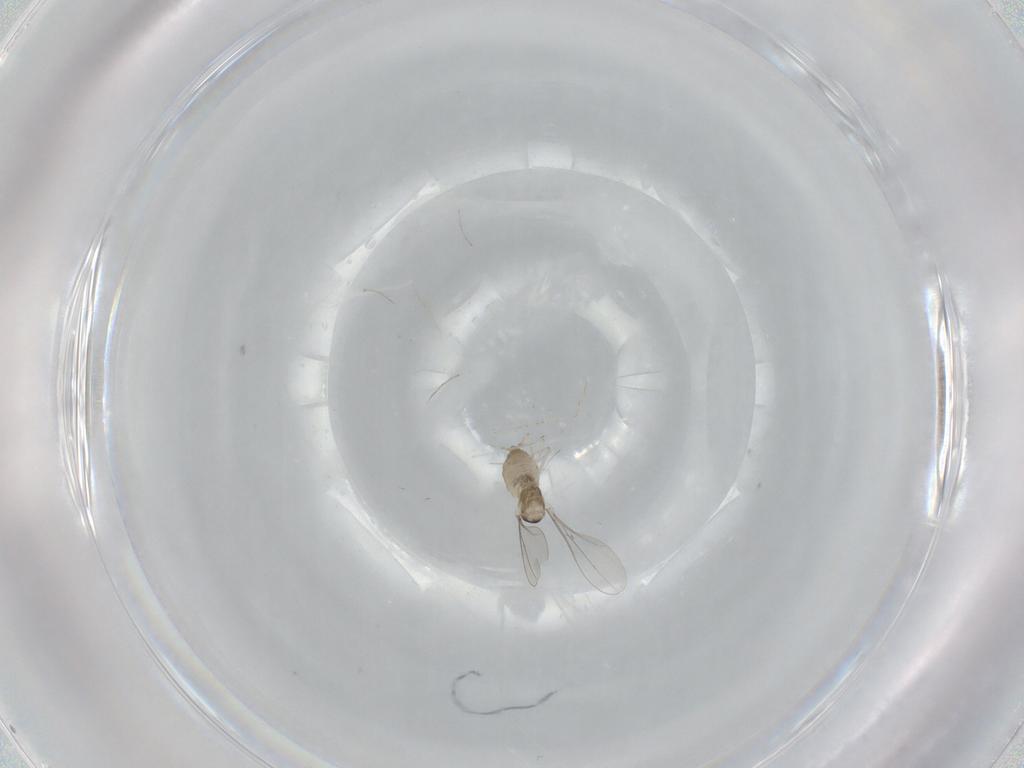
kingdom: Animalia
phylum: Arthropoda
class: Insecta
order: Diptera
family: Cecidomyiidae
